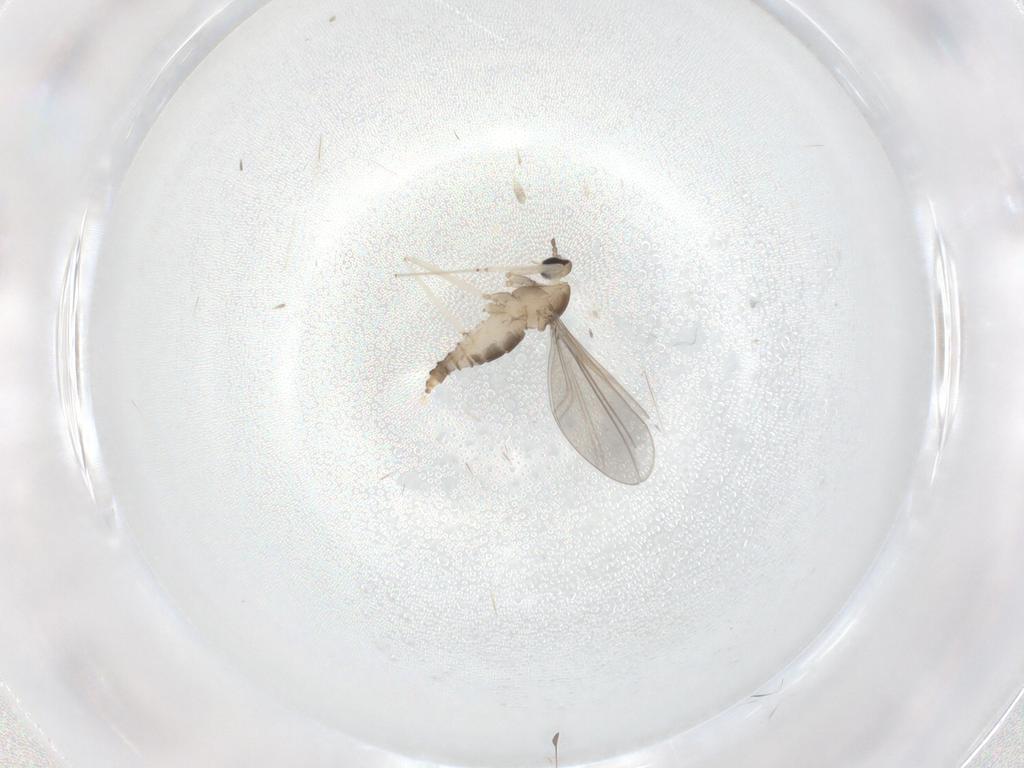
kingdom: Animalia
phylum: Arthropoda
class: Insecta
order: Diptera
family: Cecidomyiidae
